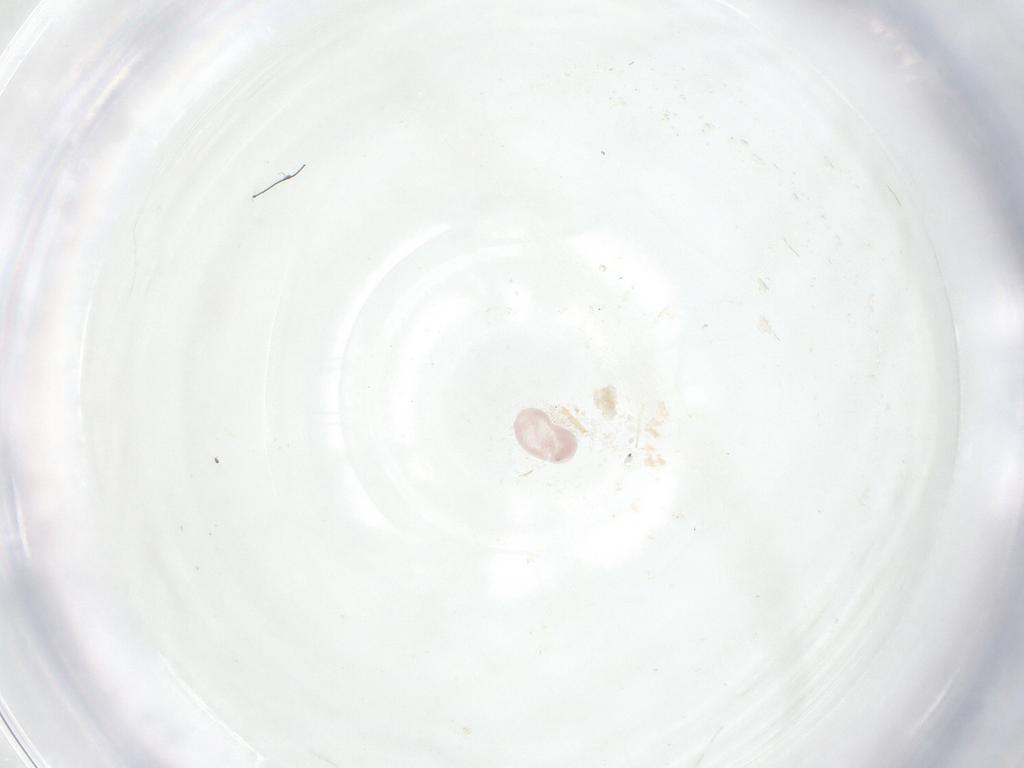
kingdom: Animalia
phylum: Arthropoda
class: Insecta
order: Coleoptera
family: Coccinellidae
